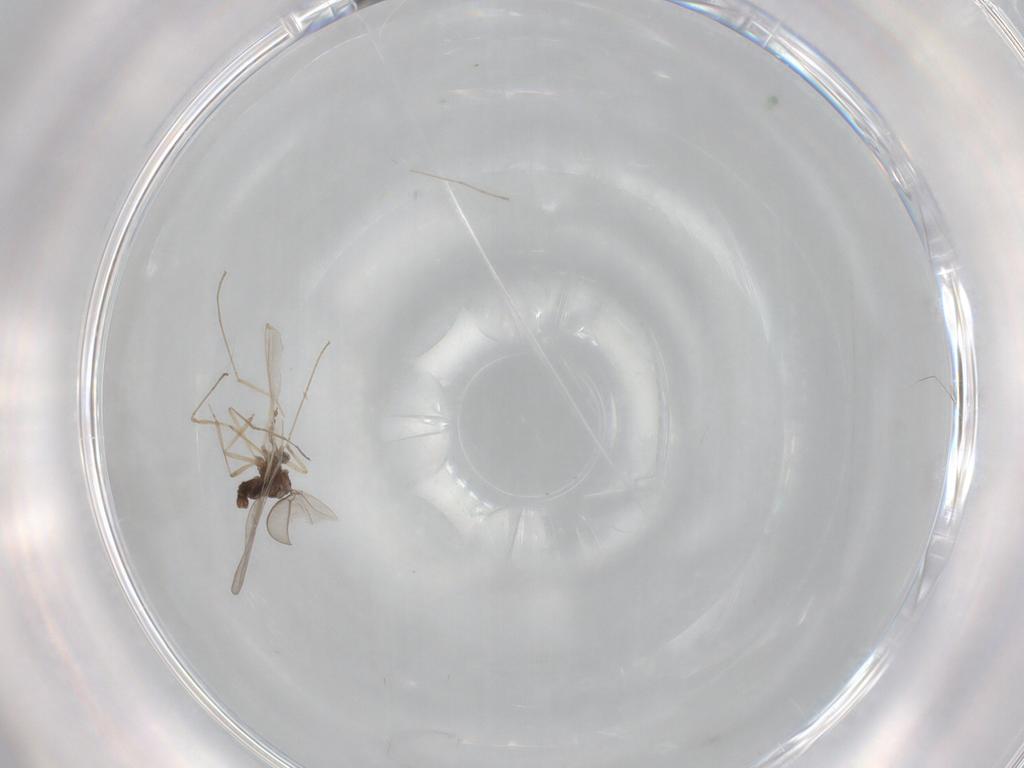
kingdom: Animalia
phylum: Arthropoda
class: Insecta
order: Diptera
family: Cecidomyiidae
